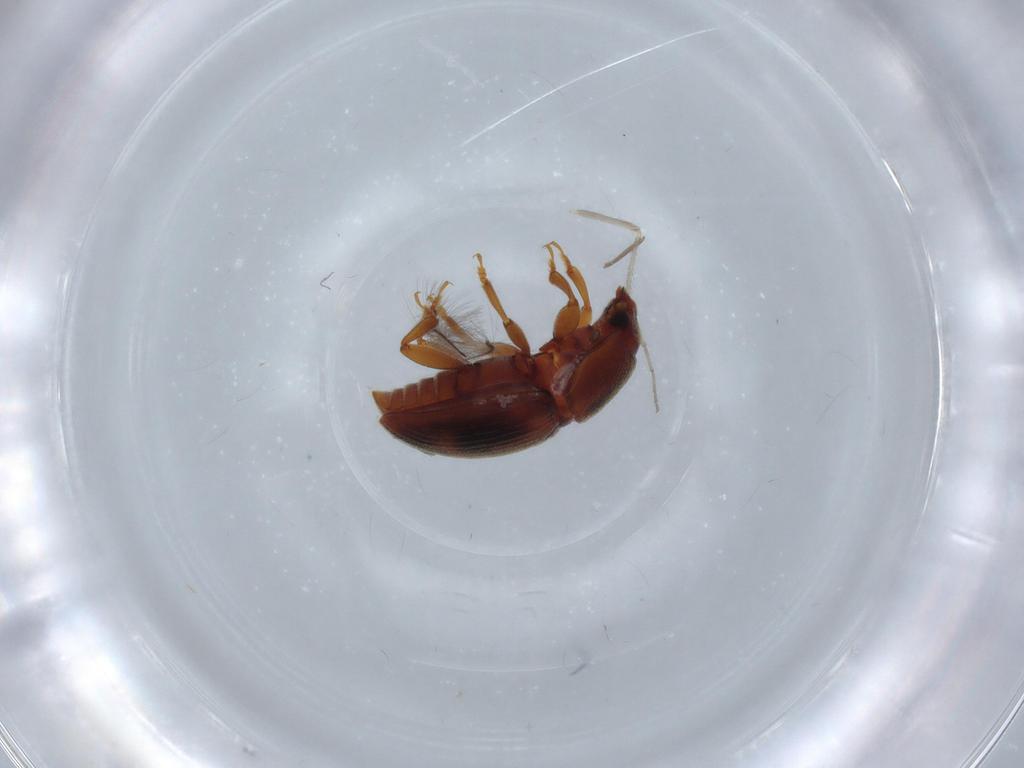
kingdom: Animalia
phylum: Arthropoda
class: Insecta
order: Coleoptera
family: Nitidulidae
